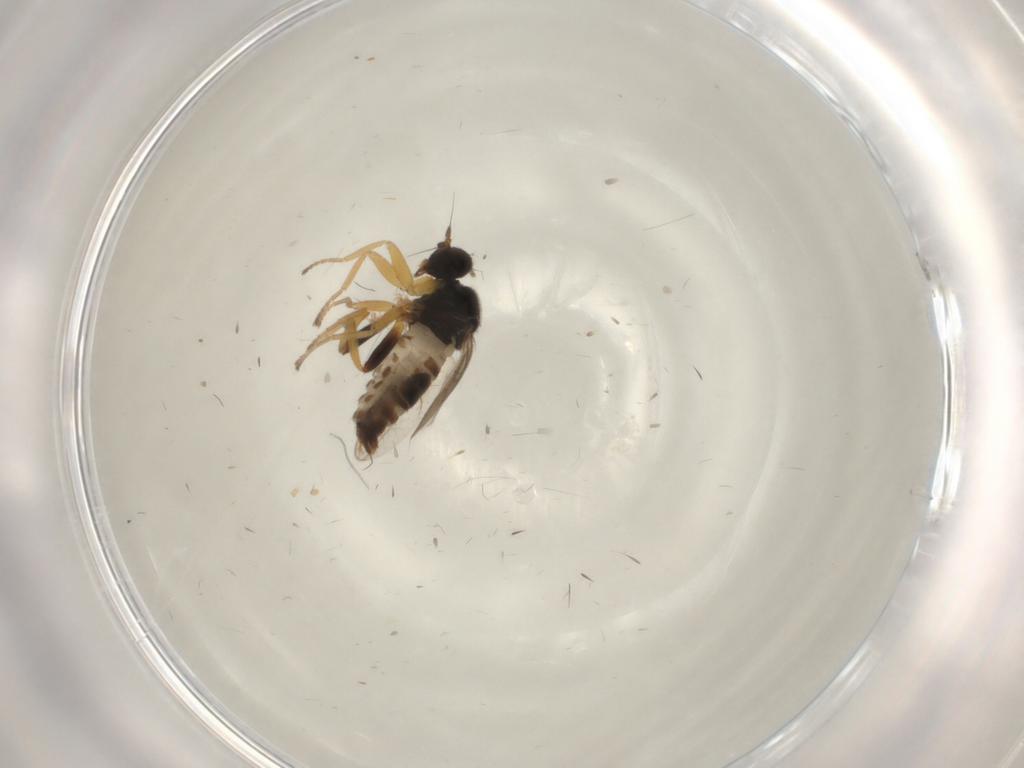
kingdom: Animalia
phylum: Arthropoda
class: Insecta
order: Diptera
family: Hybotidae
